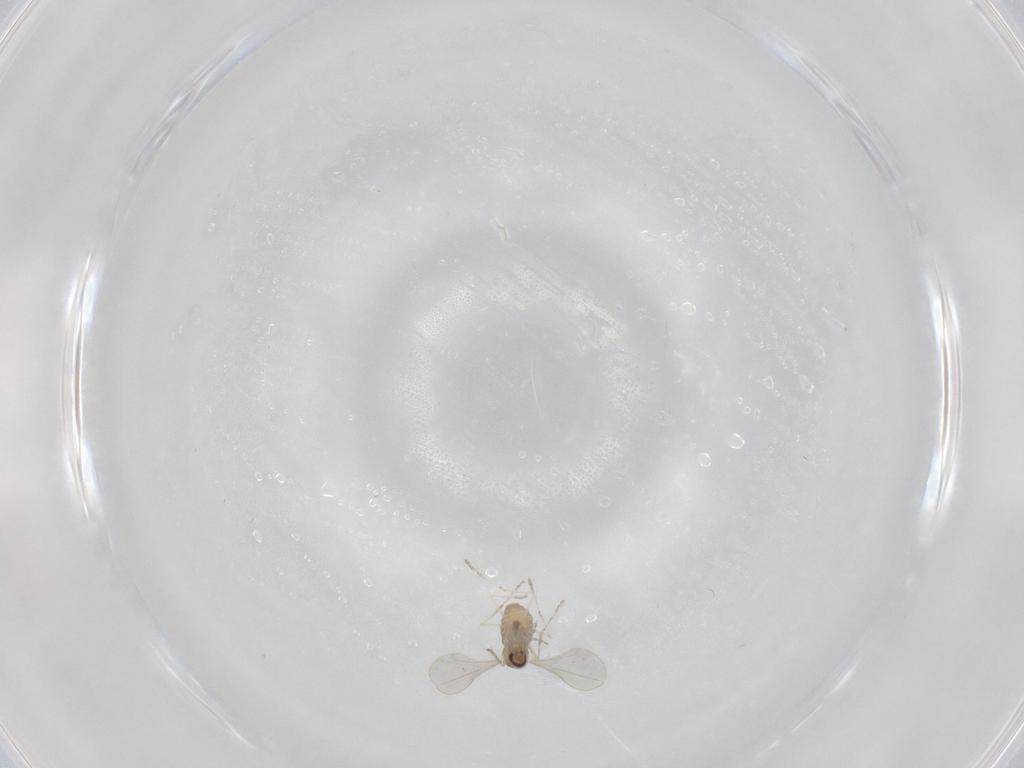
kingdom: Animalia
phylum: Arthropoda
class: Insecta
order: Diptera
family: Cecidomyiidae
